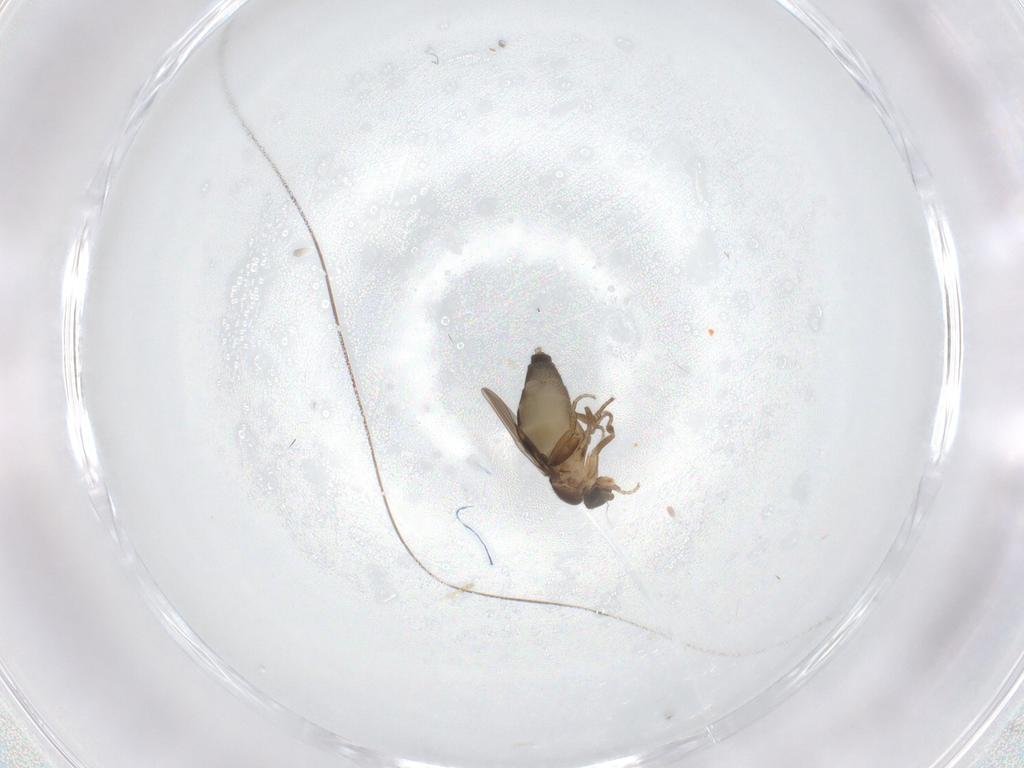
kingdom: Animalia
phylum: Arthropoda
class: Insecta
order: Diptera
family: Phoridae
